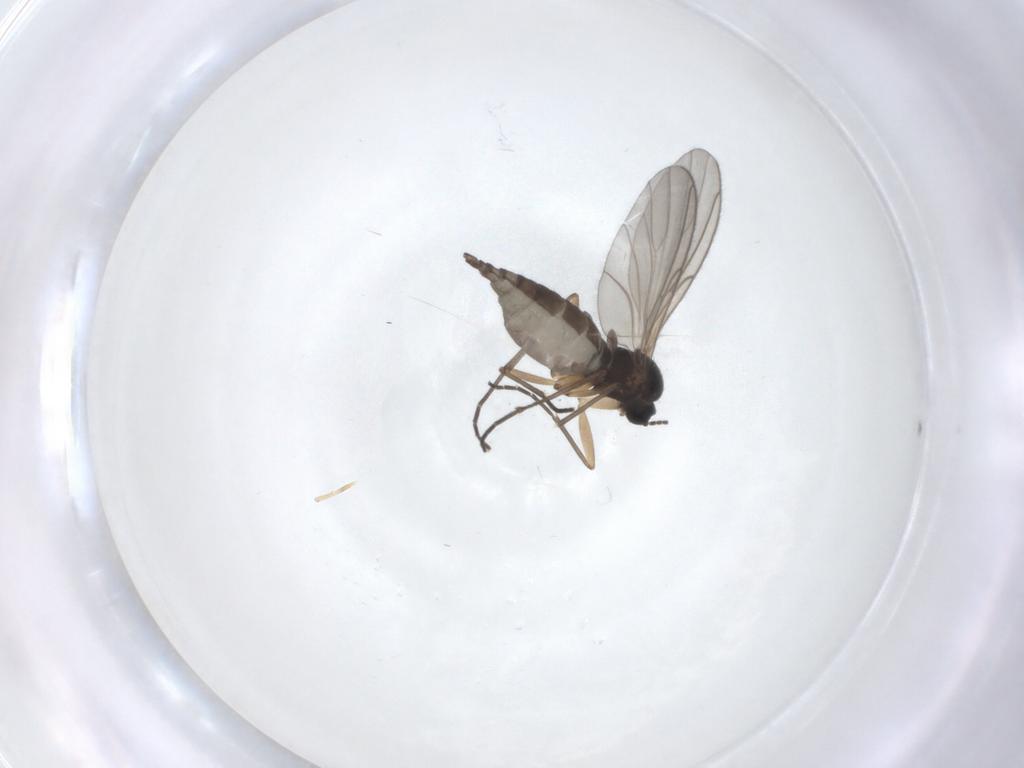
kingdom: Animalia
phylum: Arthropoda
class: Insecta
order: Diptera
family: Sciaridae
